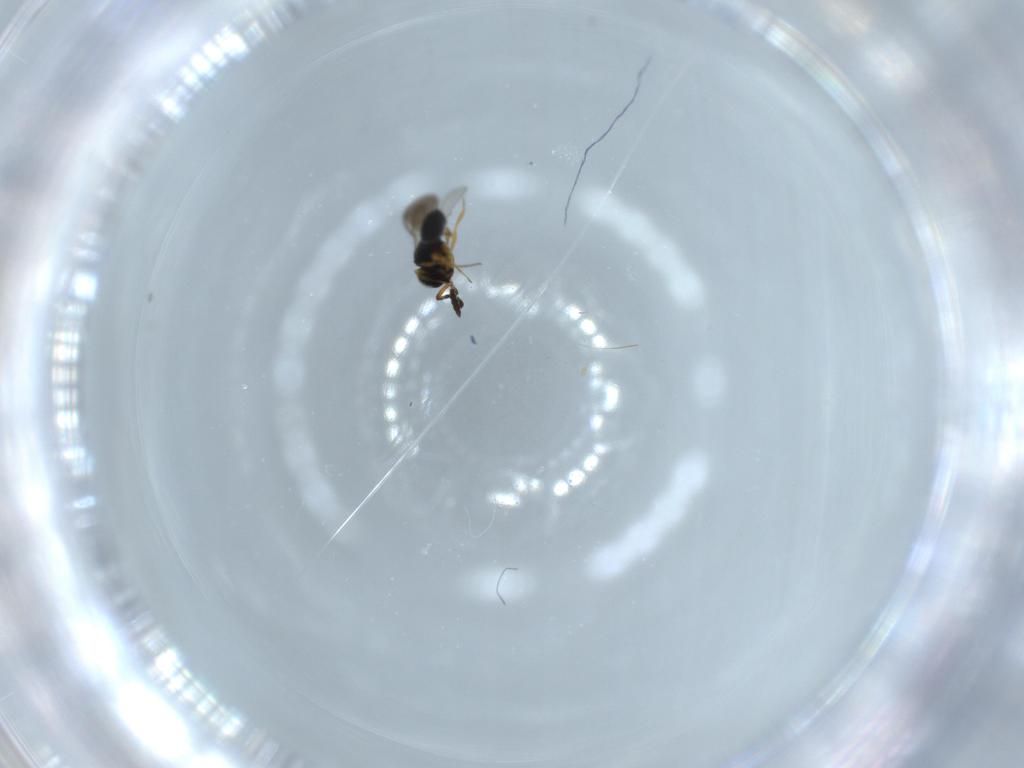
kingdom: Animalia
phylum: Arthropoda
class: Insecta
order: Hymenoptera
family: Scelionidae
